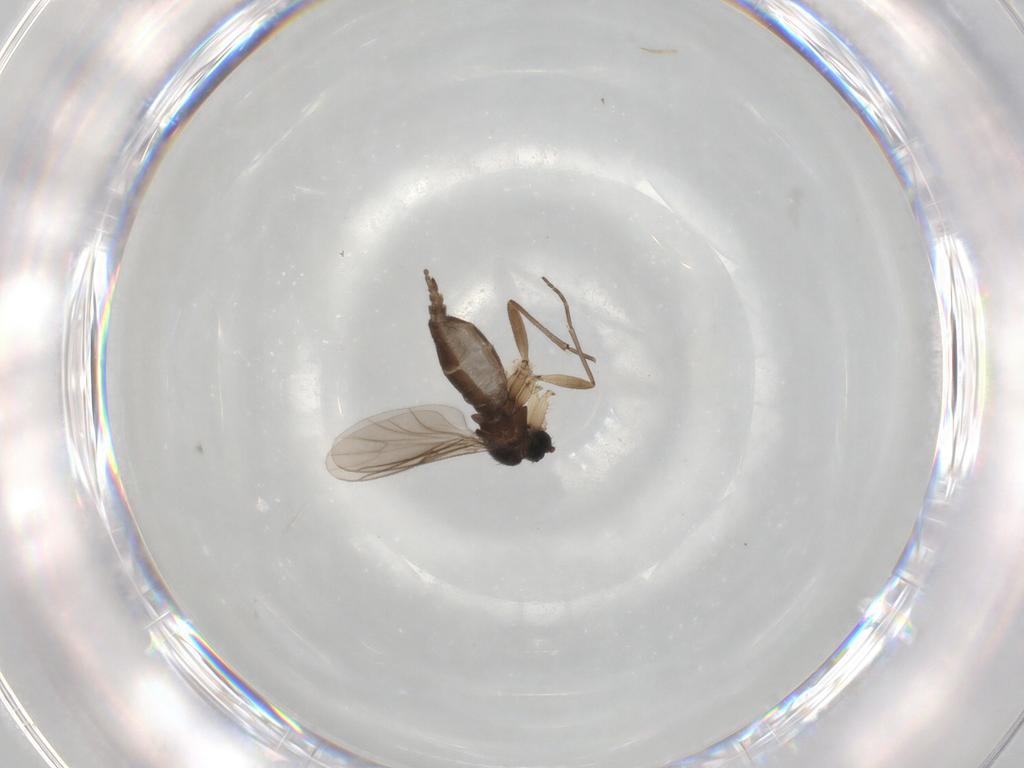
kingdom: Animalia
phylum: Arthropoda
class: Insecta
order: Diptera
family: Sciaridae
